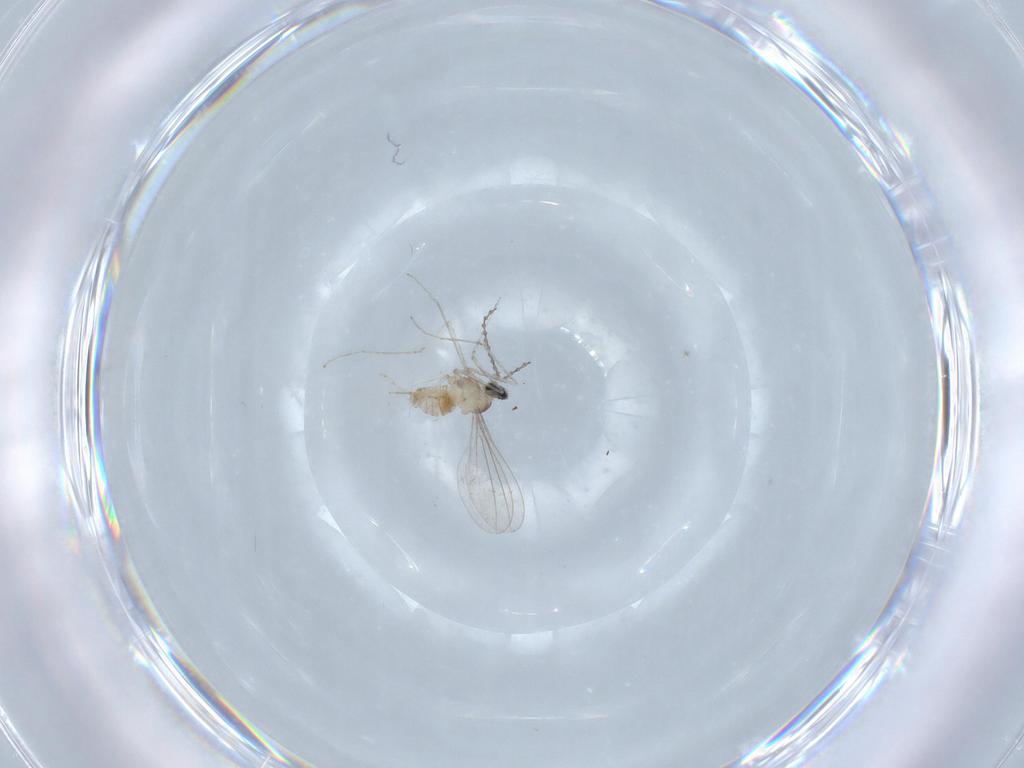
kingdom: Animalia
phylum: Arthropoda
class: Insecta
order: Diptera
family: Cecidomyiidae
